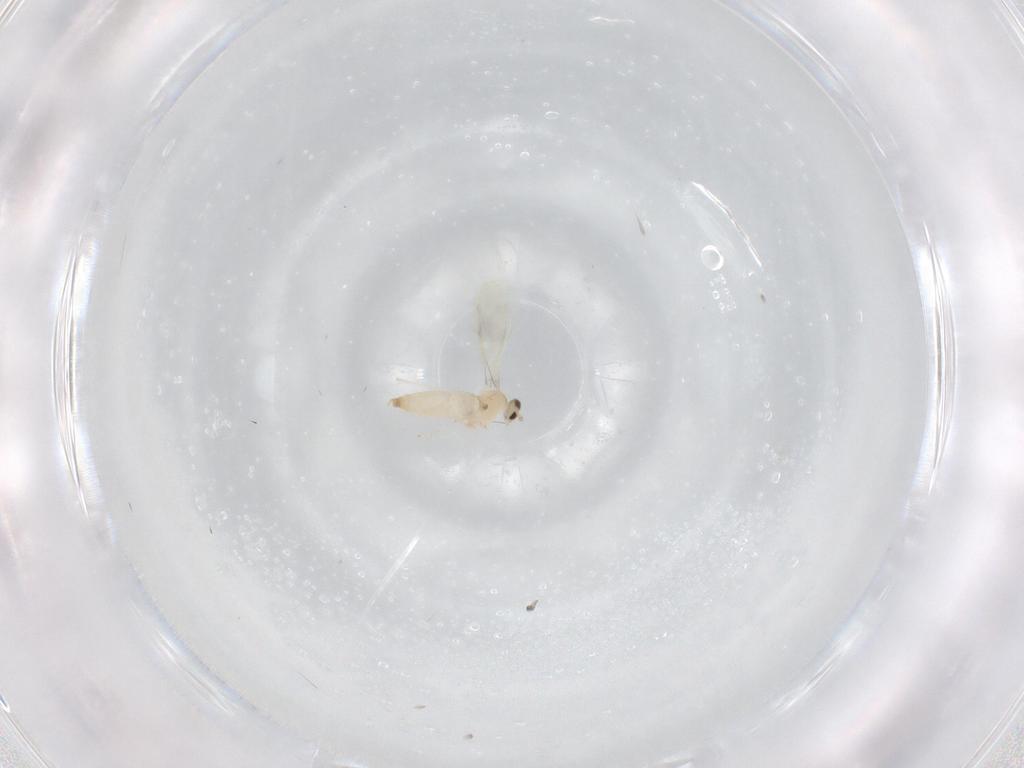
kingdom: Animalia
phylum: Arthropoda
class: Insecta
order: Diptera
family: Cecidomyiidae
